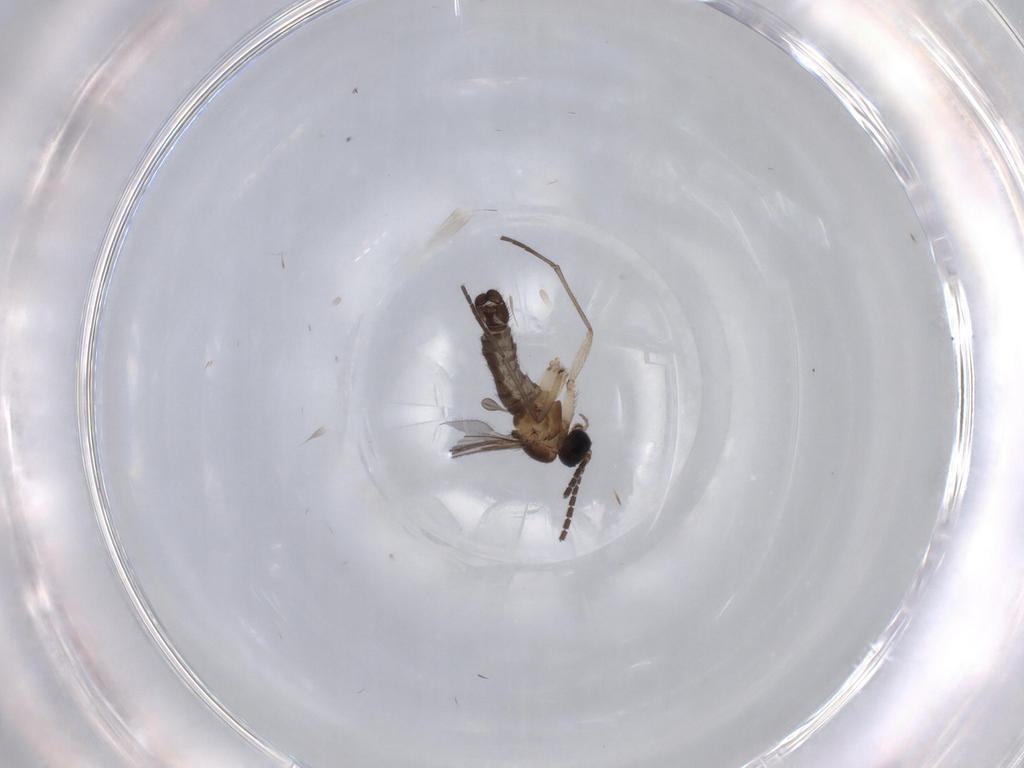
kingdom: Animalia
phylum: Arthropoda
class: Insecta
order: Diptera
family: Sciaridae
